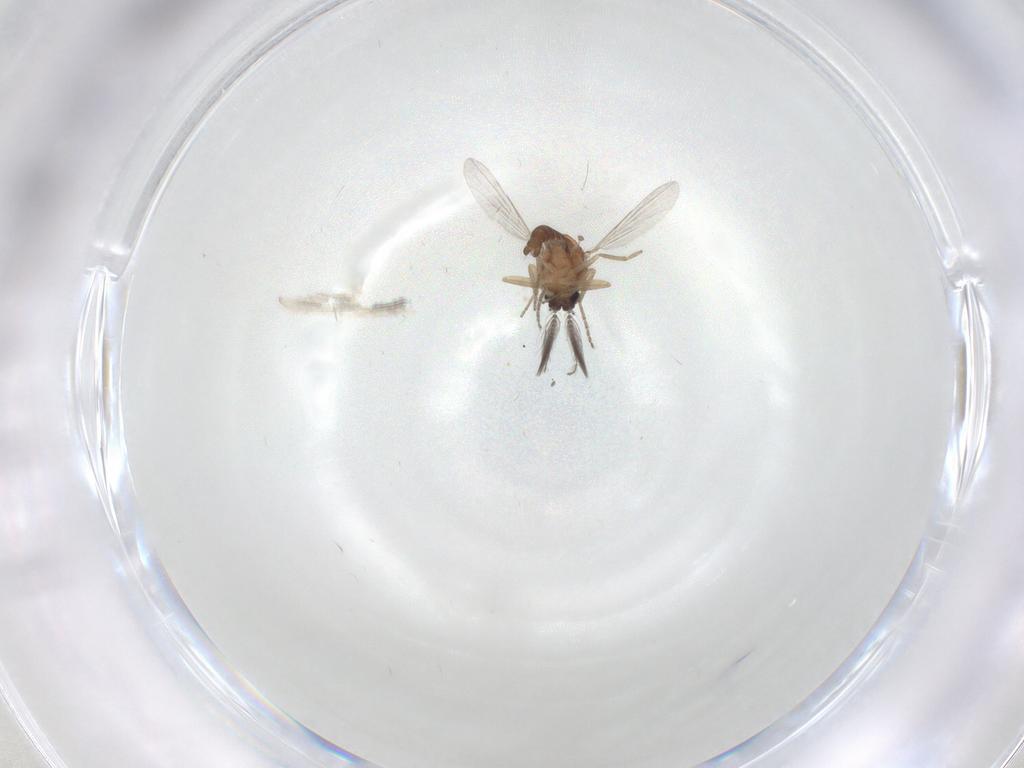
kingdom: Animalia
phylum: Arthropoda
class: Insecta
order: Diptera
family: Ceratopogonidae
